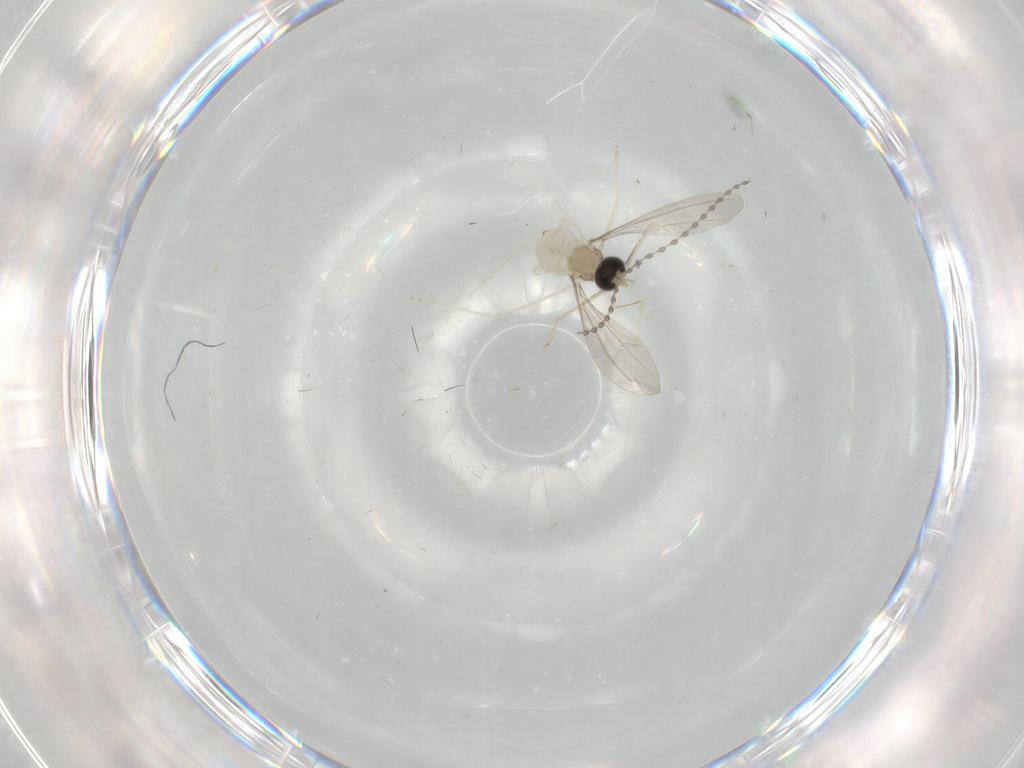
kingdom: Animalia
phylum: Arthropoda
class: Insecta
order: Diptera
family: Cecidomyiidae
